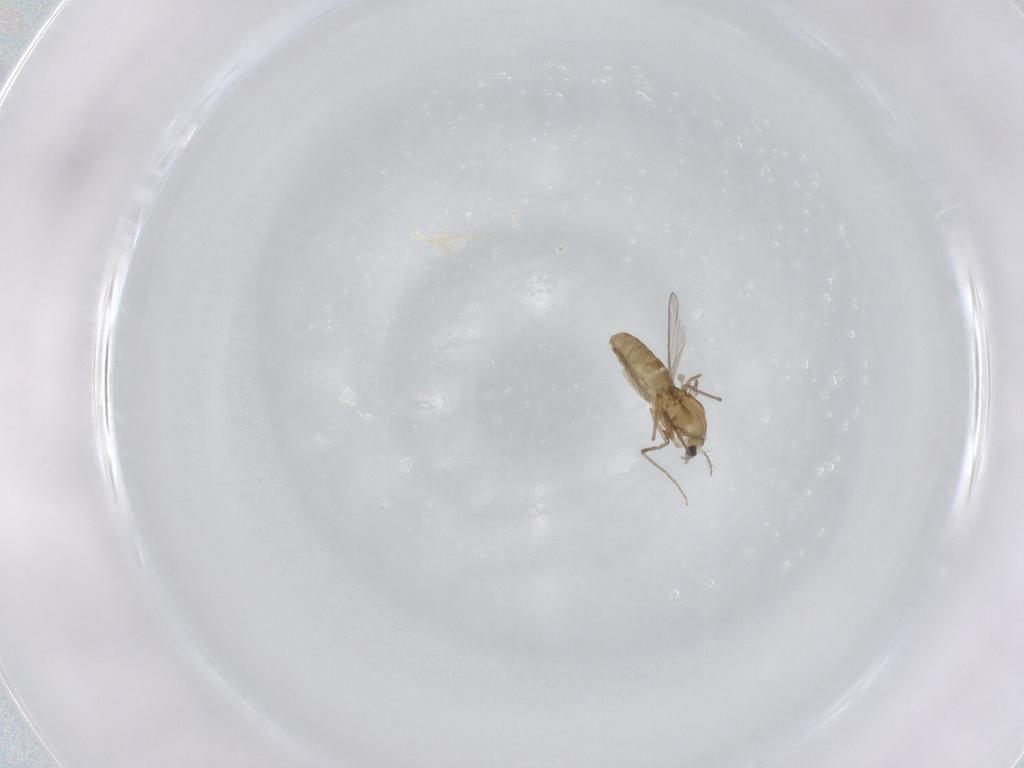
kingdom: Animalia
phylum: Arthropoda
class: Insecta
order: Diptera
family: Chironomidae
